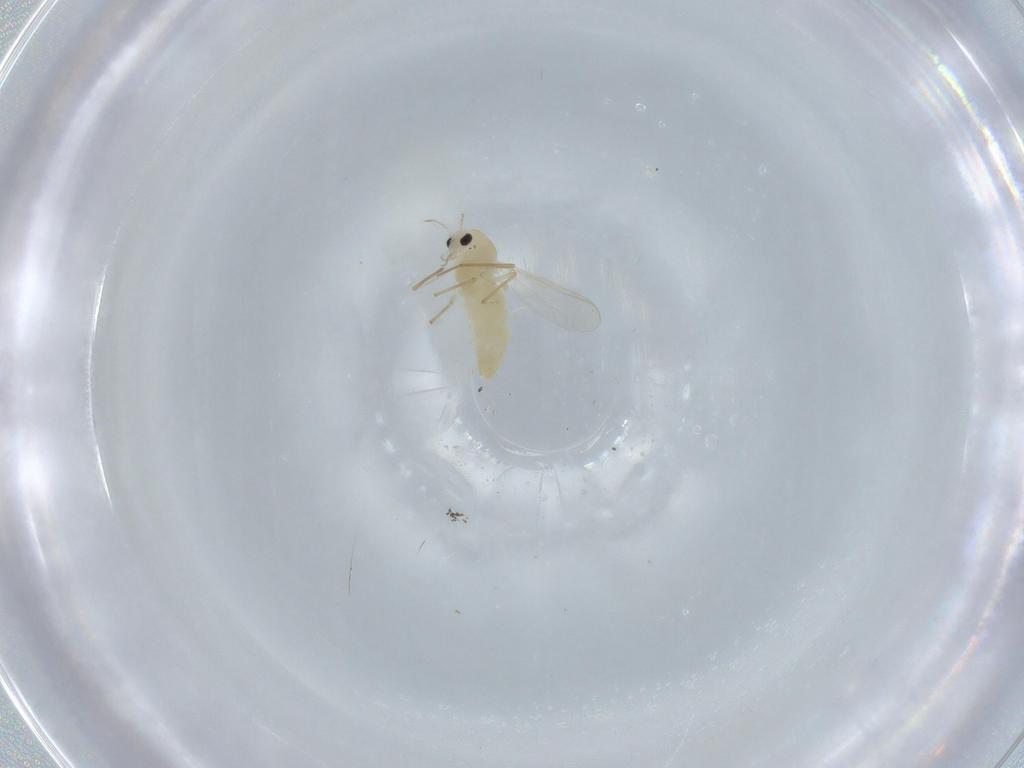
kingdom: Animalia
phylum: Arthropoda
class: Insecta
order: Diptera
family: Chironomidae
